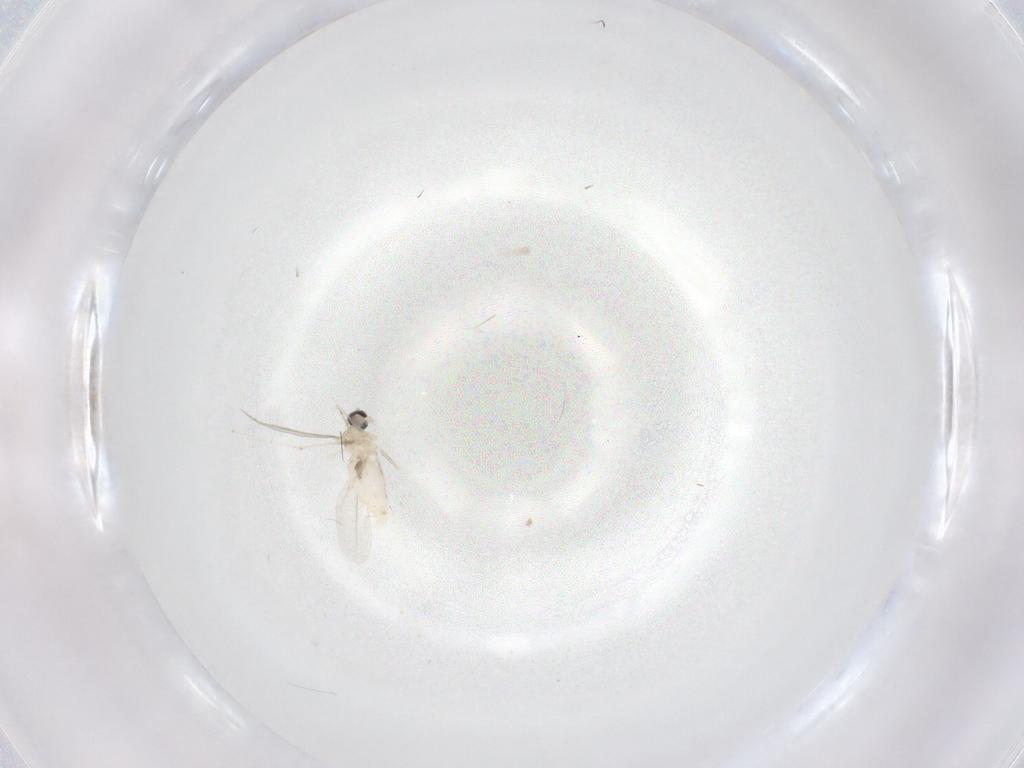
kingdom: Animalia
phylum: Arthropoda
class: Insecta
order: Diptera
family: Cecidomyiidae
